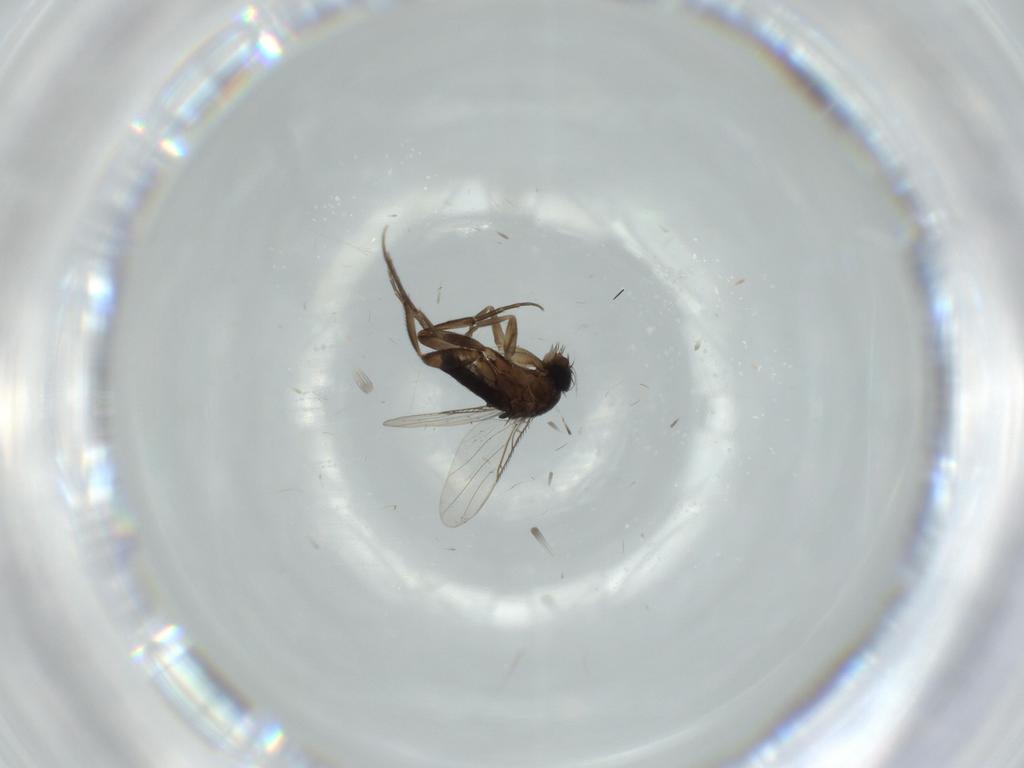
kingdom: Animalia
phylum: Arthropoda
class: Insecta
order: Diptera
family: Phoridae
